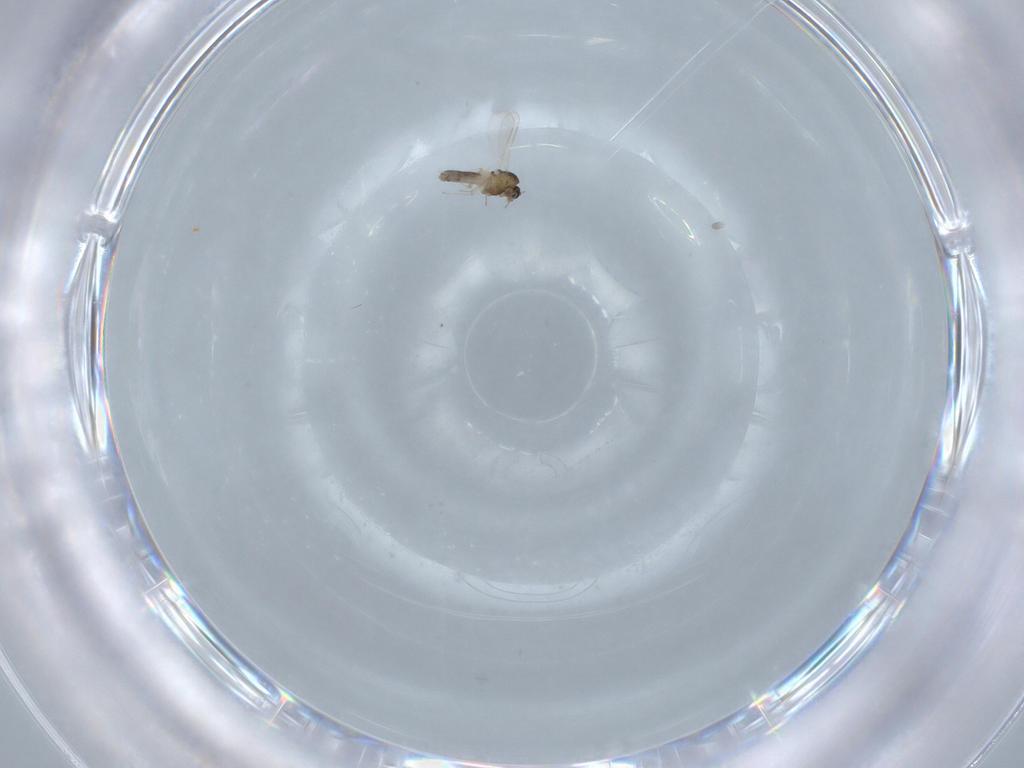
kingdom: Animalia
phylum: Arthropoda
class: Insecta
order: Diptera
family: Chironomidae
